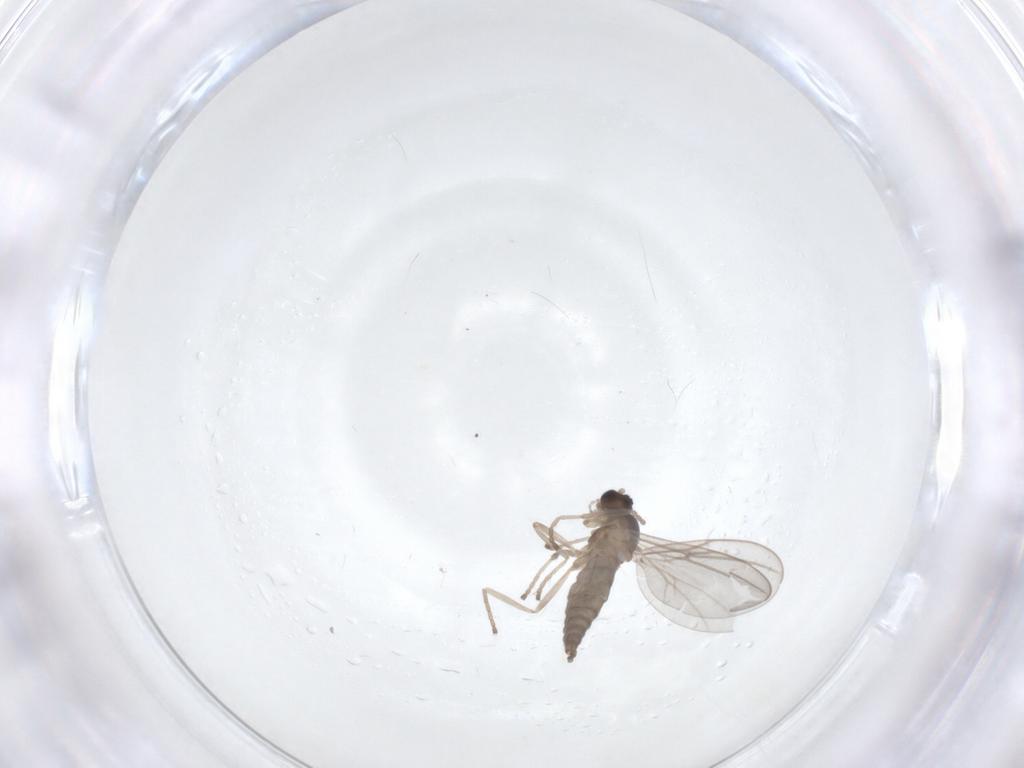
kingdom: Animalia
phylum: Arthropoda
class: Insecta
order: Diptera
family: Cecidomyiidae
